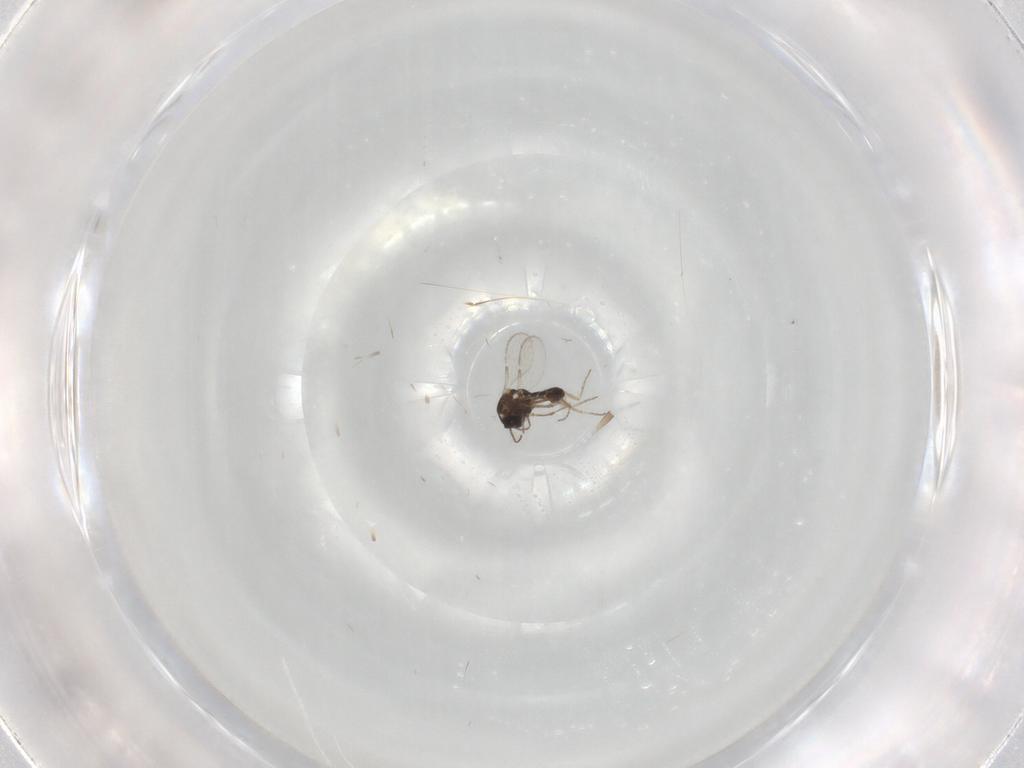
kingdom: Animalia
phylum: Arthropoda
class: Insecta
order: Diptera
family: Ceratopogonidae
